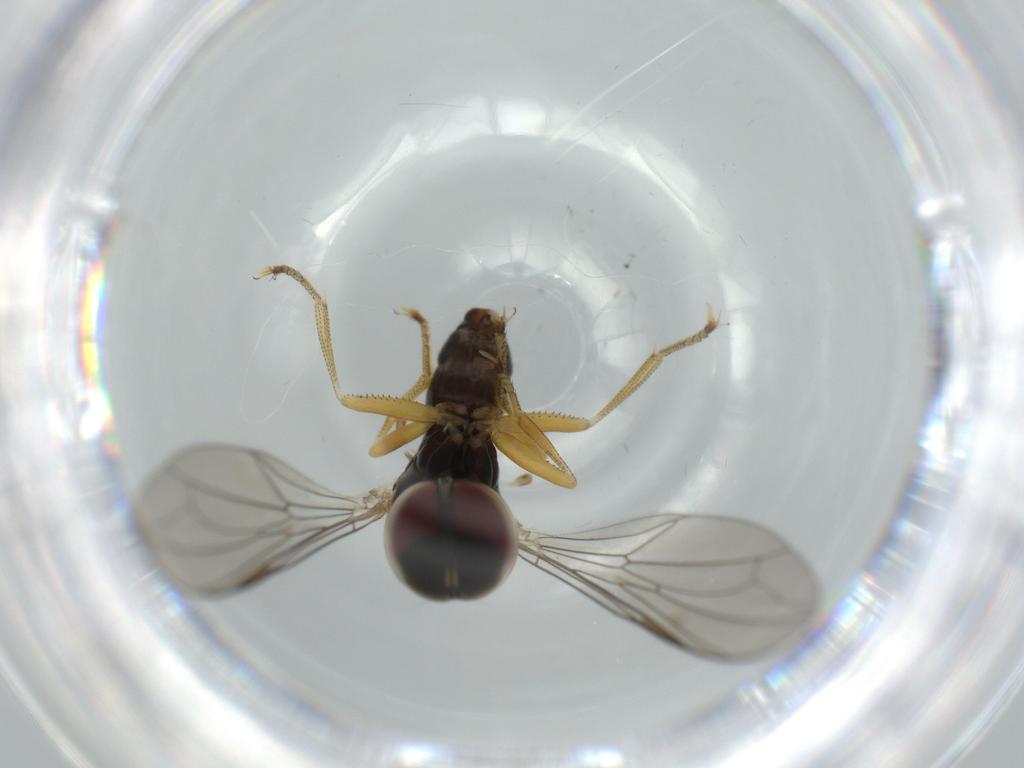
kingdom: Animalia
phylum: Arthropoda
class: Insecta
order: Diptera
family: Pipunculidae
